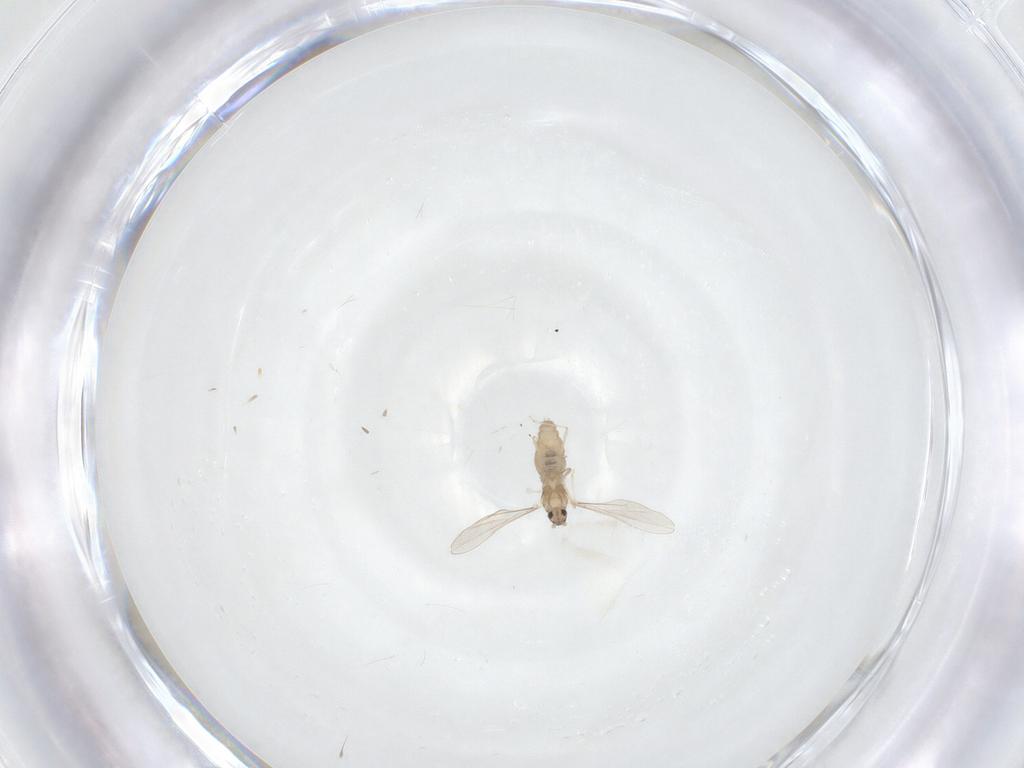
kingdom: Animalia
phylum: Arthropoda
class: Insecta
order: Diptera
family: Cecidomyiidae
